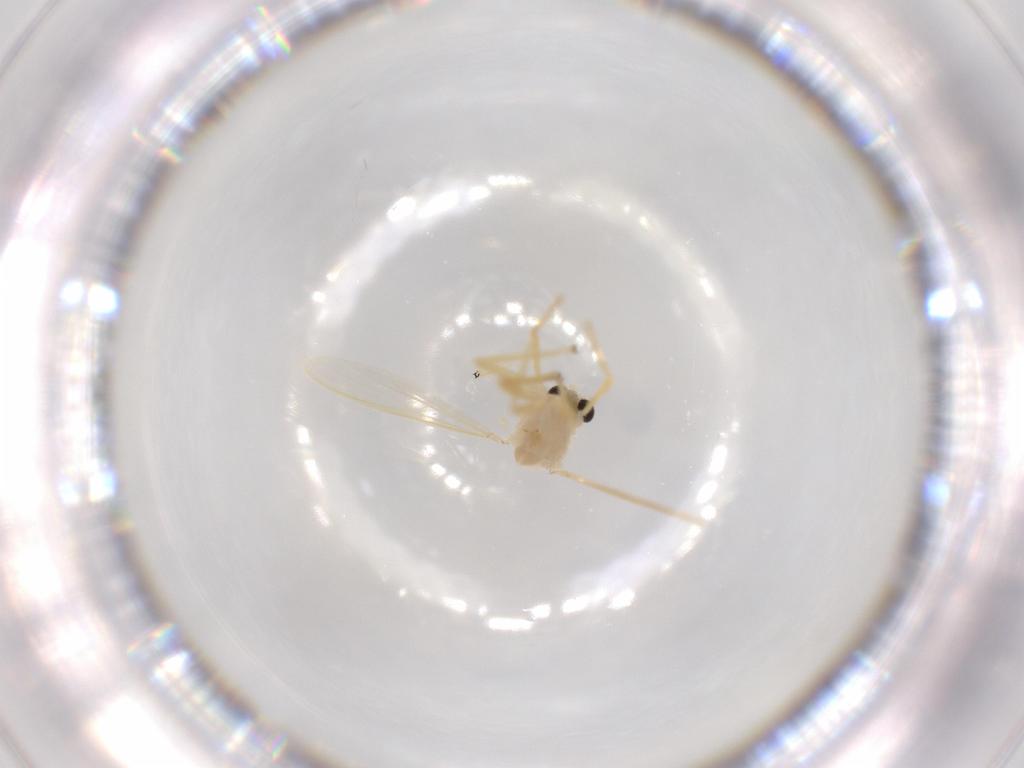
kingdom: Animalia
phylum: Arthropoda
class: Insecta
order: Diptera
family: Chironomidae
